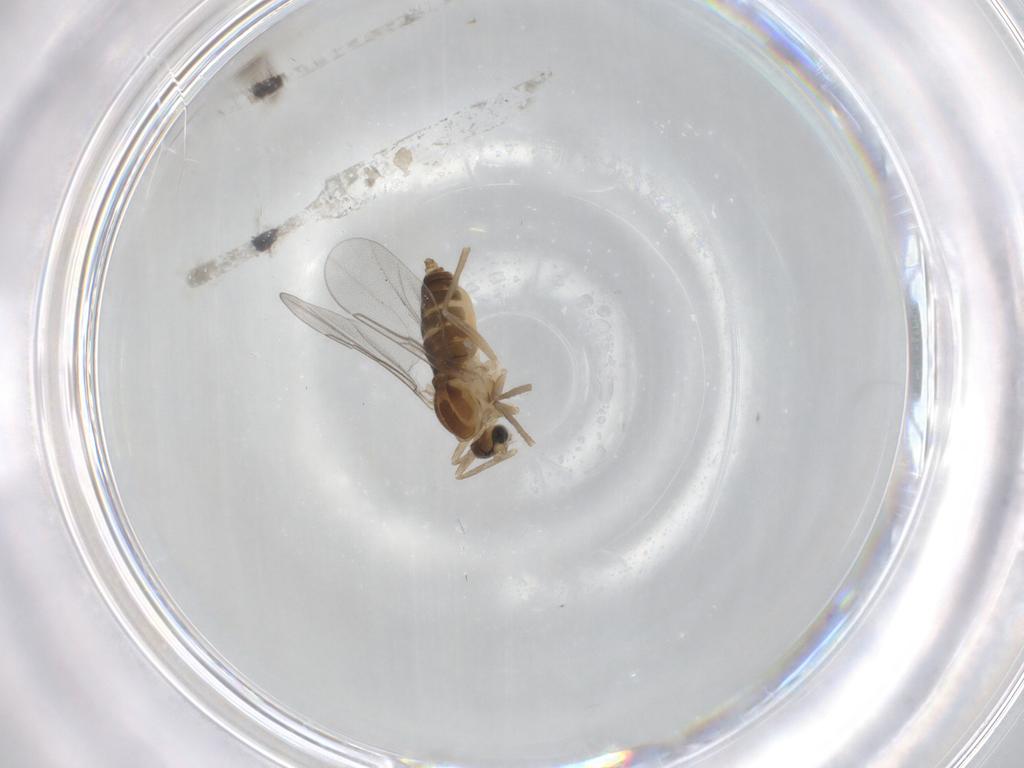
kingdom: Animalia
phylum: Arthropoda
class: Insecta
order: Diptera
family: Cecidomyiidae
